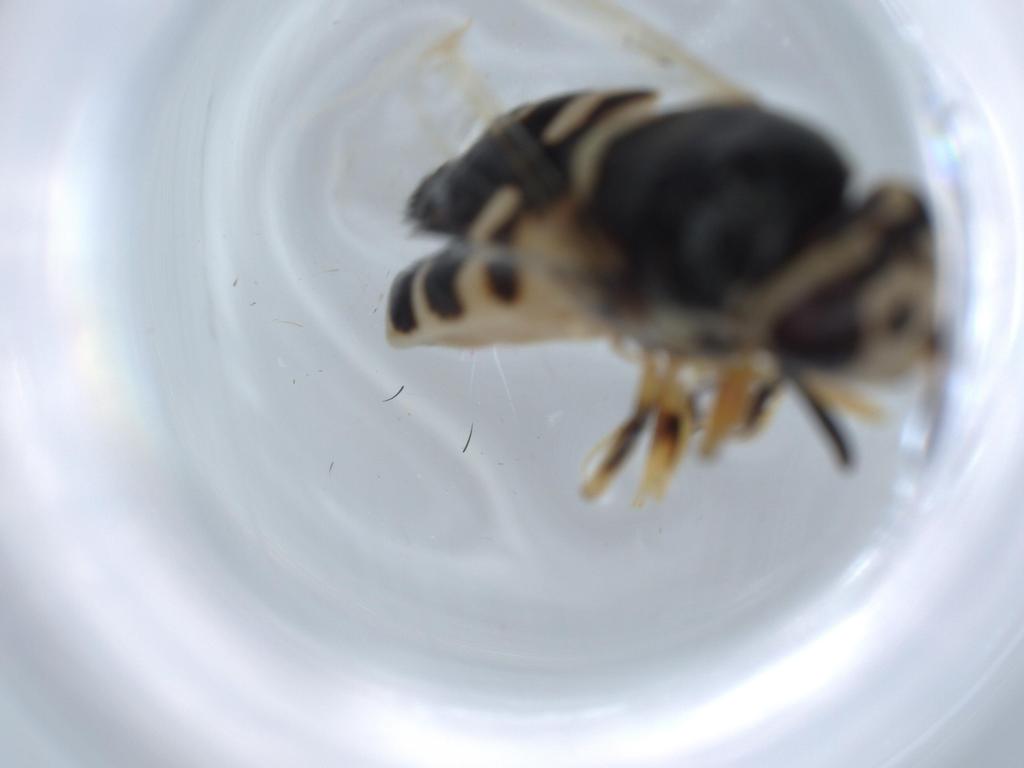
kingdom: Animalia
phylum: Arthropoda
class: Insecta
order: Diptera
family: Stratiomyidae
